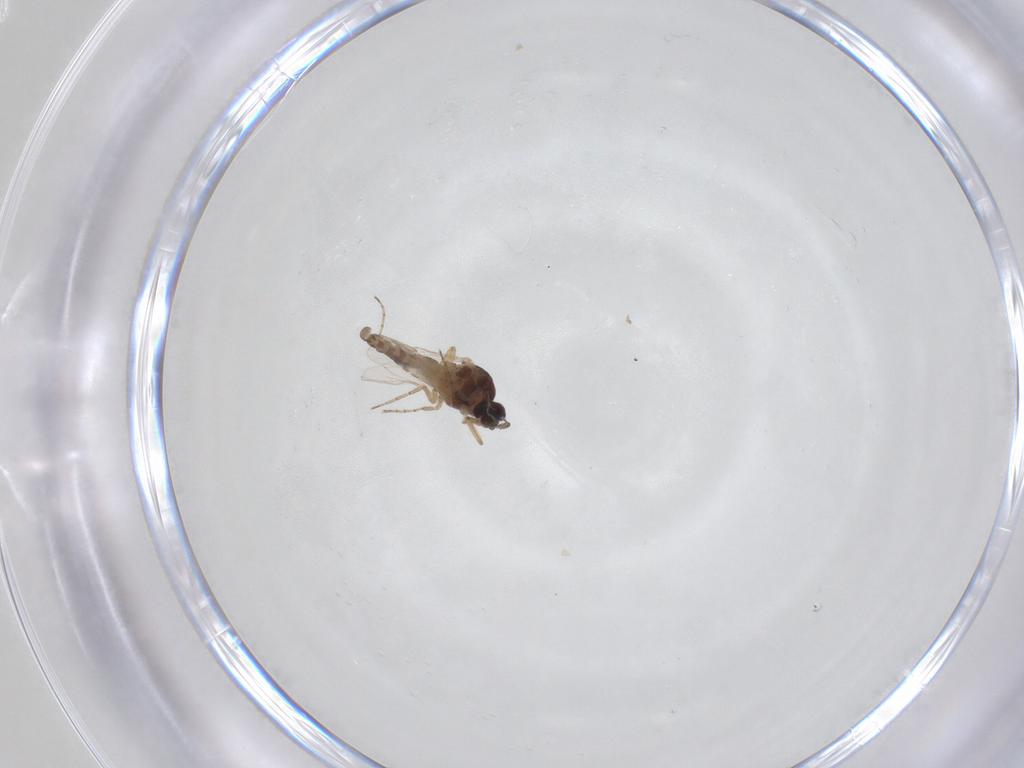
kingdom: Animalia
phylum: Arthropoda
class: Insecta
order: Diptera
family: Ceratopogonidae
